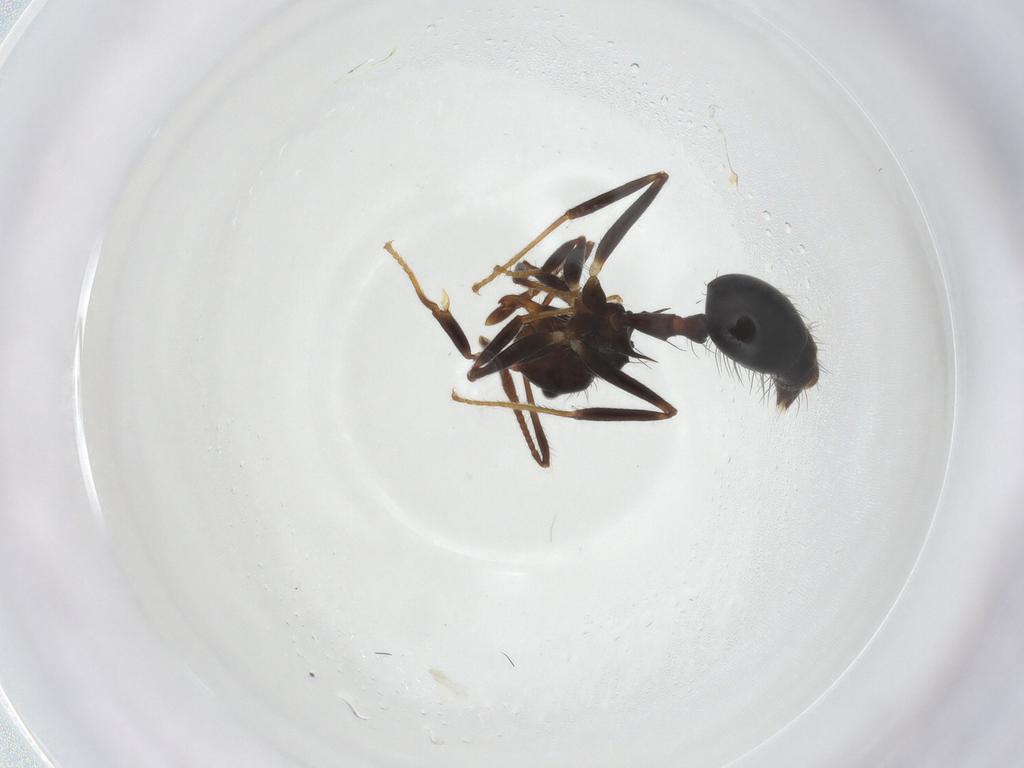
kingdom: Animalia
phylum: Arthropoda
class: Insecta
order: Hymenoptera
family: Formicidae
